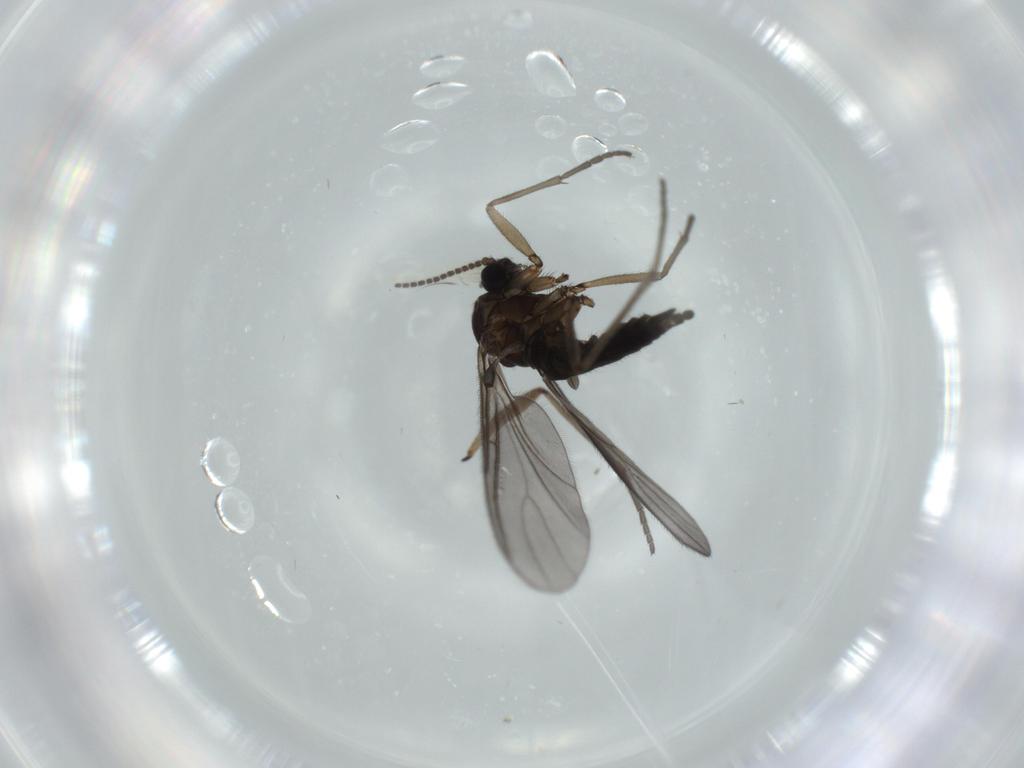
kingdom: Animalia
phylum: Arthropoda
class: Insecta
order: Diptera
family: Sciaridae
